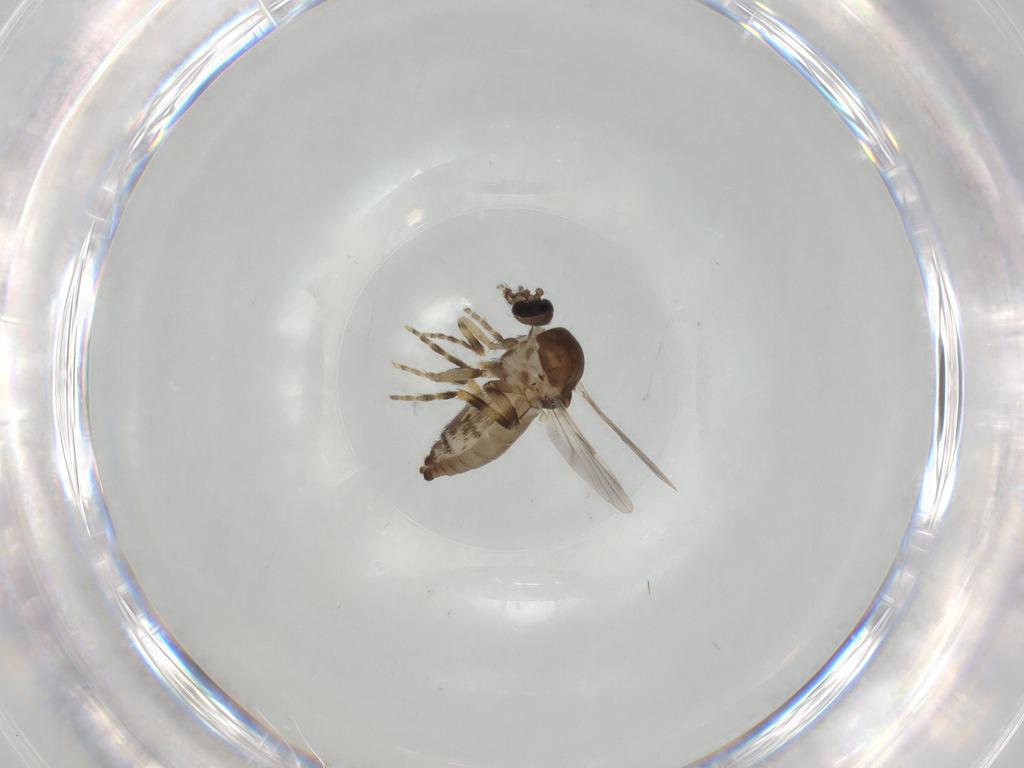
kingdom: Animalia
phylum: Arthropoda
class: Insecta
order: Diptera
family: Ceratopogonidae
